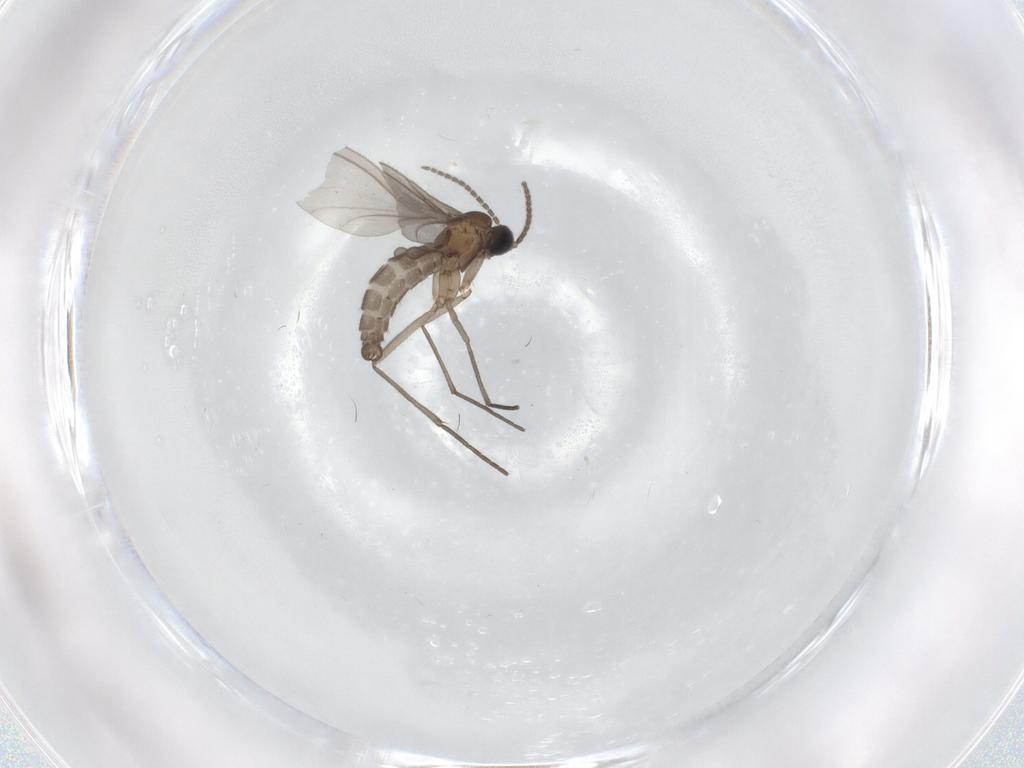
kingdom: Animalia
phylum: Arthropoda
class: Insecta
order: Diptera
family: Sciaridae
